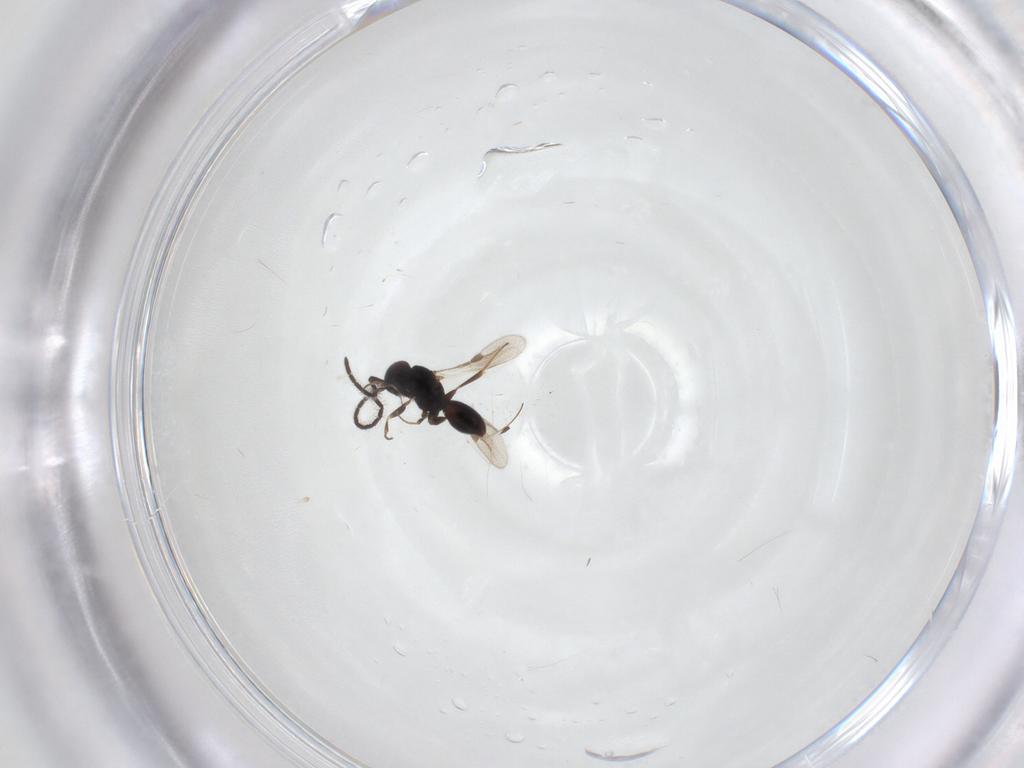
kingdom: Animalia
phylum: Arthropoda
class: Insecta
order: Hymenoptera
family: Megaspilidae
